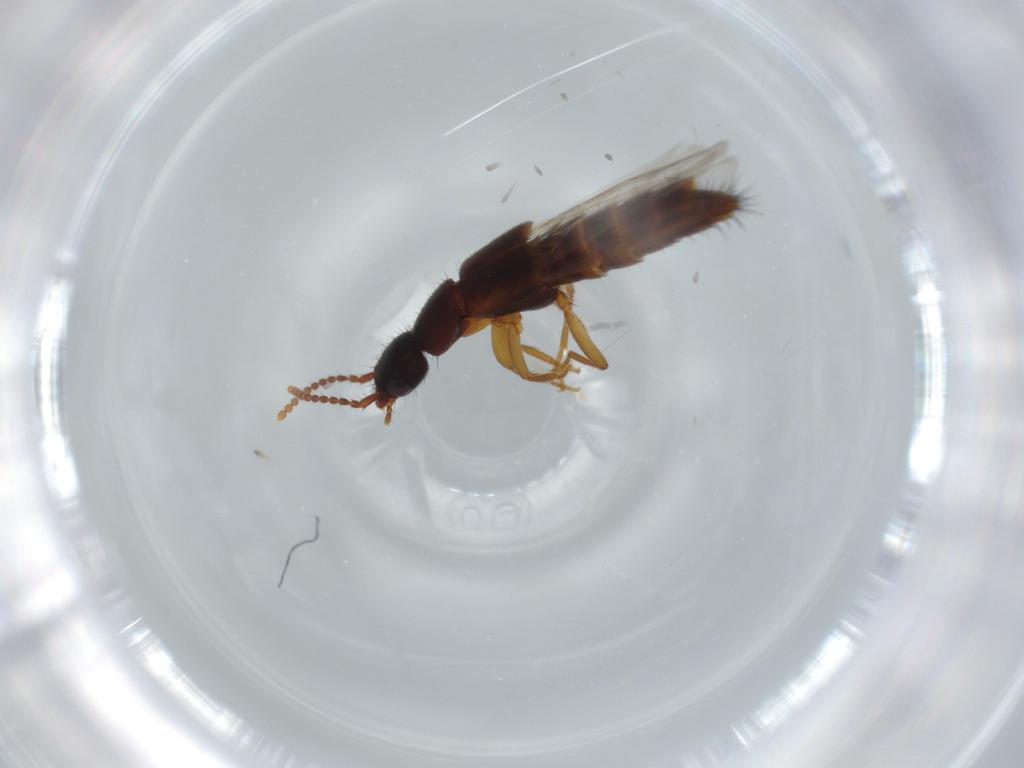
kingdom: Animalia
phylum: Arthropoda
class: Insecta
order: Coleoptera
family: Staphylinidae
